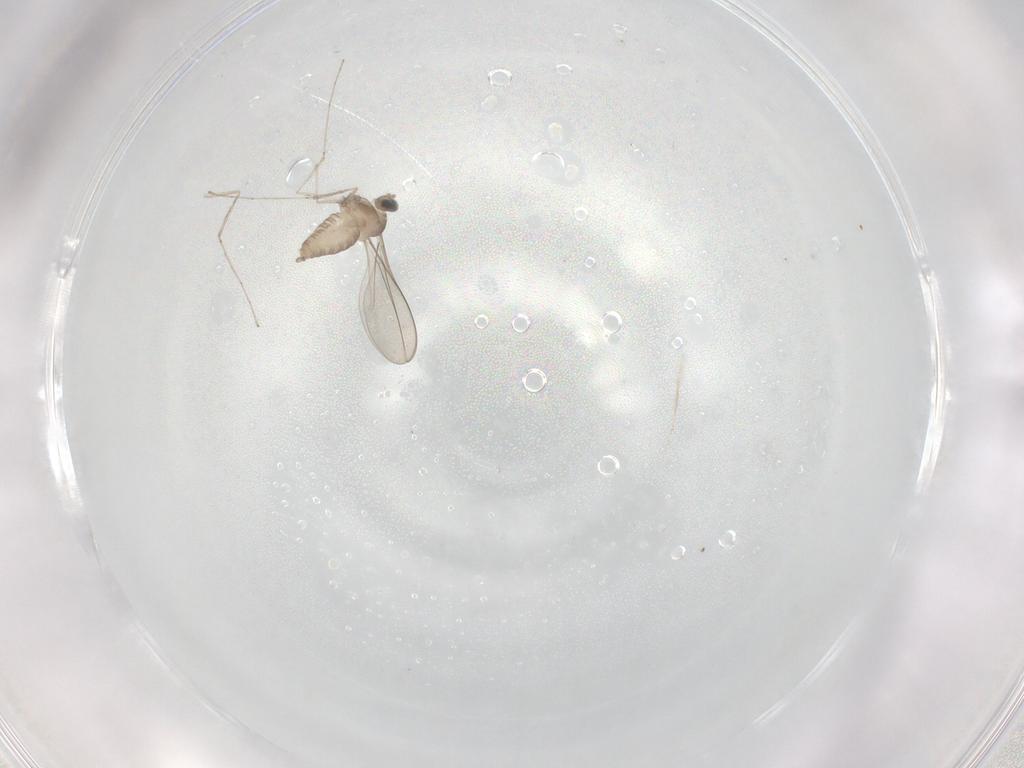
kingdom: Animalia
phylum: Arthropoda
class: Insecta
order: Diptera
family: Cecidomyiidae
